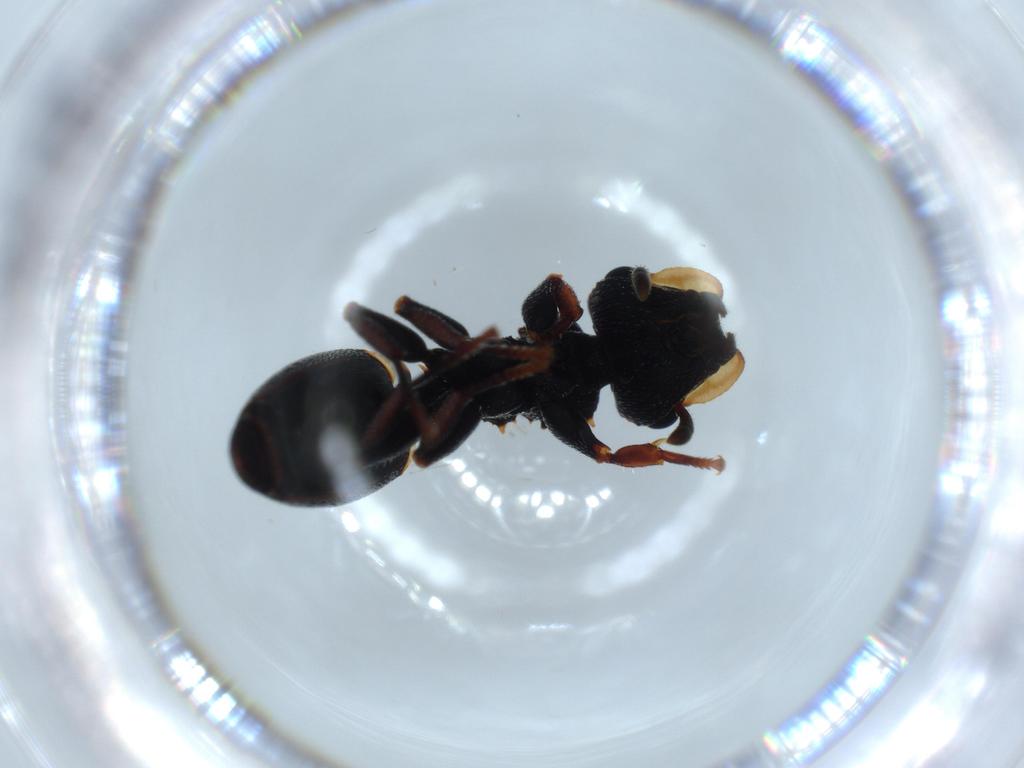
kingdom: Animalia
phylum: Arthropoda
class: Insecta
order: Hymenoptera
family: Formicidae
